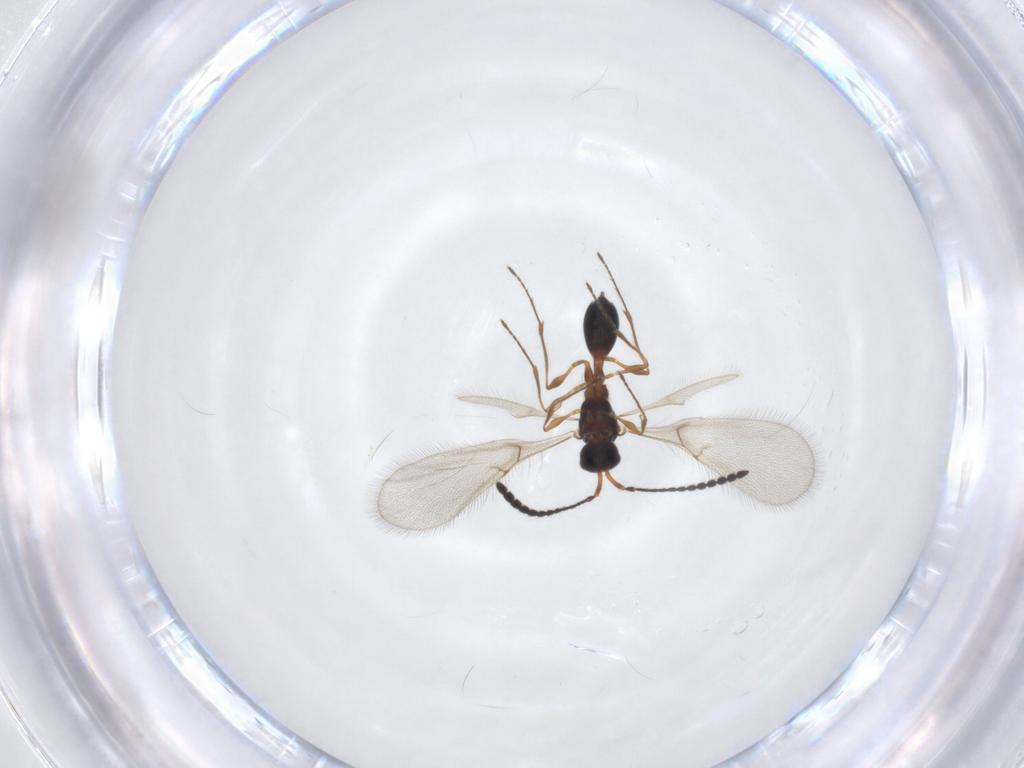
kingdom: Animalia
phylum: Arthropoda
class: Insecta
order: Hymenoptera
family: Diapriidae
